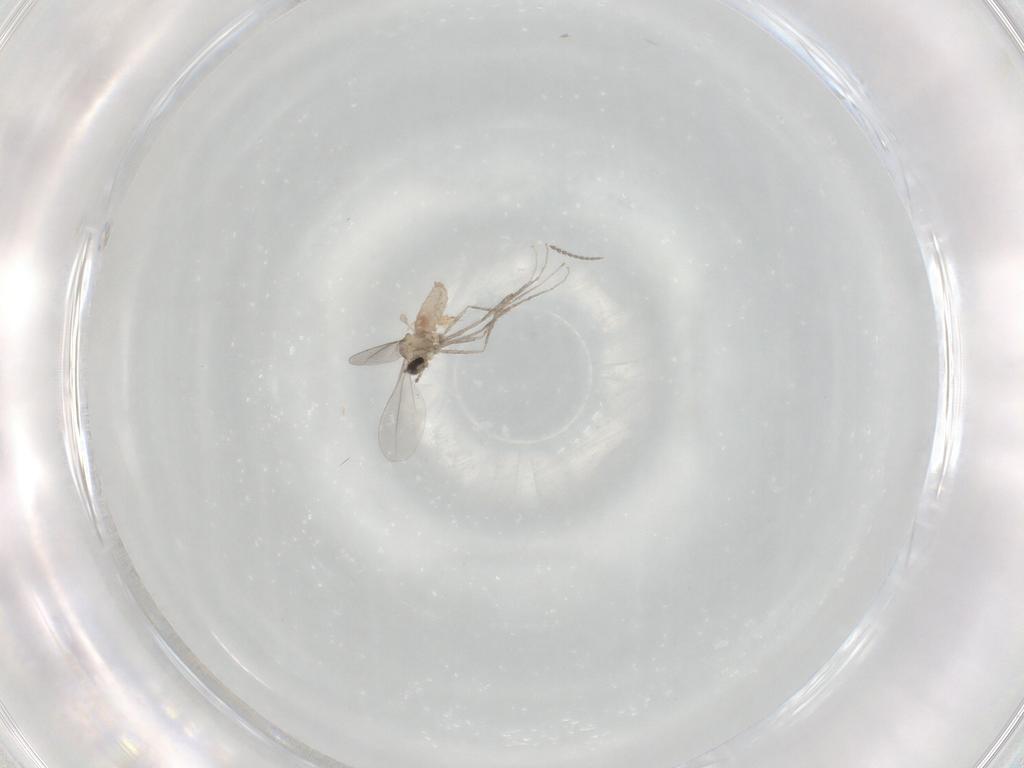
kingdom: Animalia
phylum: Arthropoda
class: Insecta
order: Diptera
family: Cecidomyiidae
